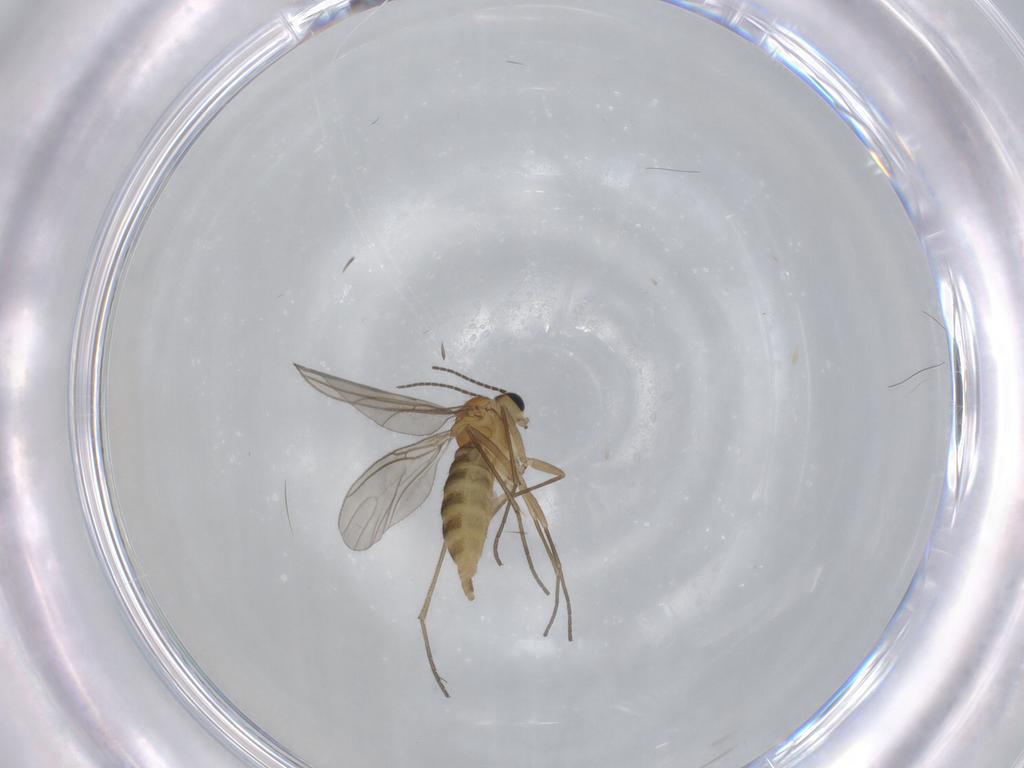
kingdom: Animalia
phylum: Arthropoda
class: Insecta
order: Diptera
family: Sciaridae
